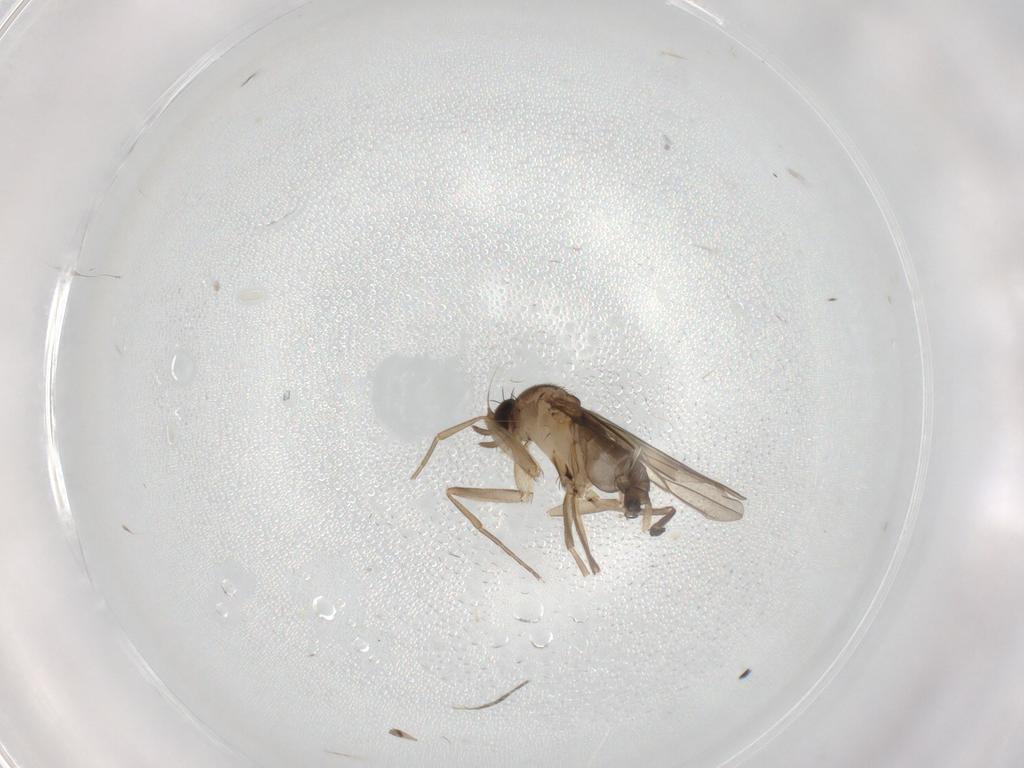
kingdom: Animalia
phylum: Arthropoda
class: Insecta
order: Diptera
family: Phoridae
